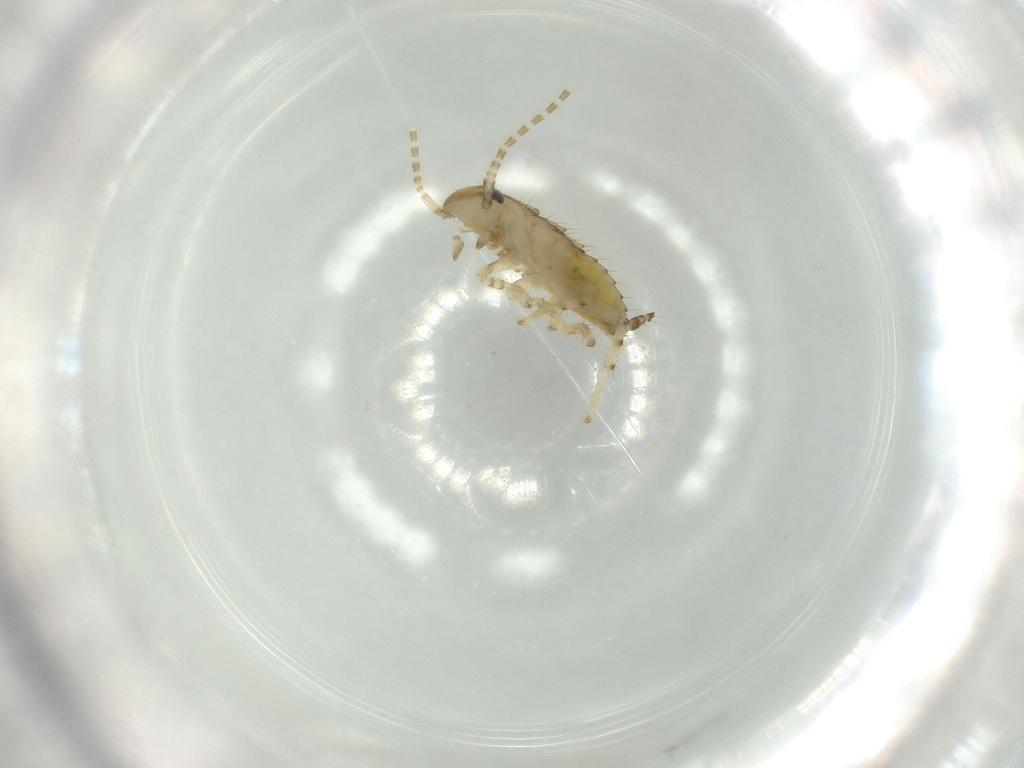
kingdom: Animalia
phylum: Arthropoda
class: Insecta
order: Blattodea
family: Ectobiidae
